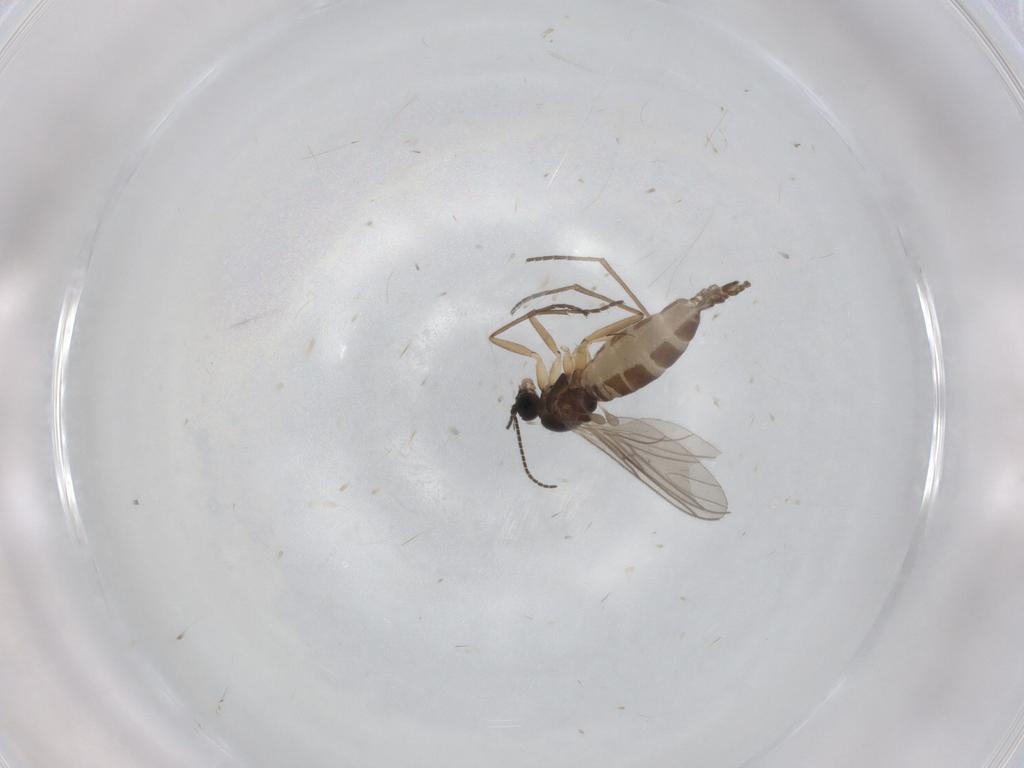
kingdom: Animalia
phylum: Arthropoda
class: Insecta
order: Diptera
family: Sciaridae
